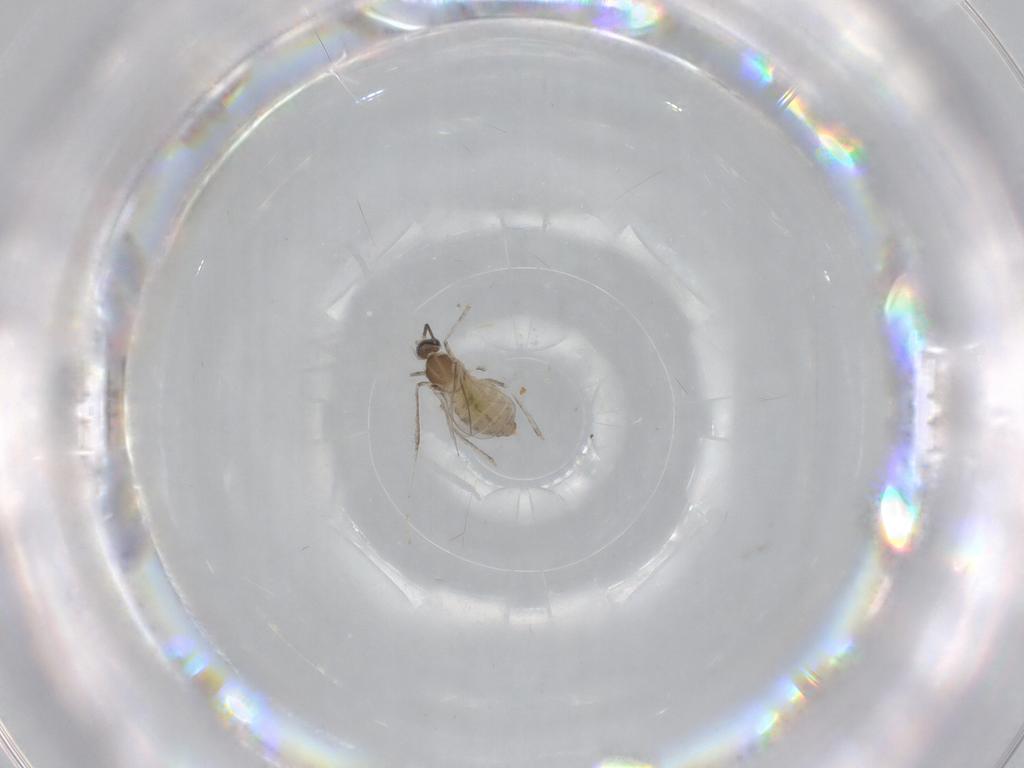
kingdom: Animalia
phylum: Arthropoda
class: Insecta
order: Diptera
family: Cecidomyiidae
